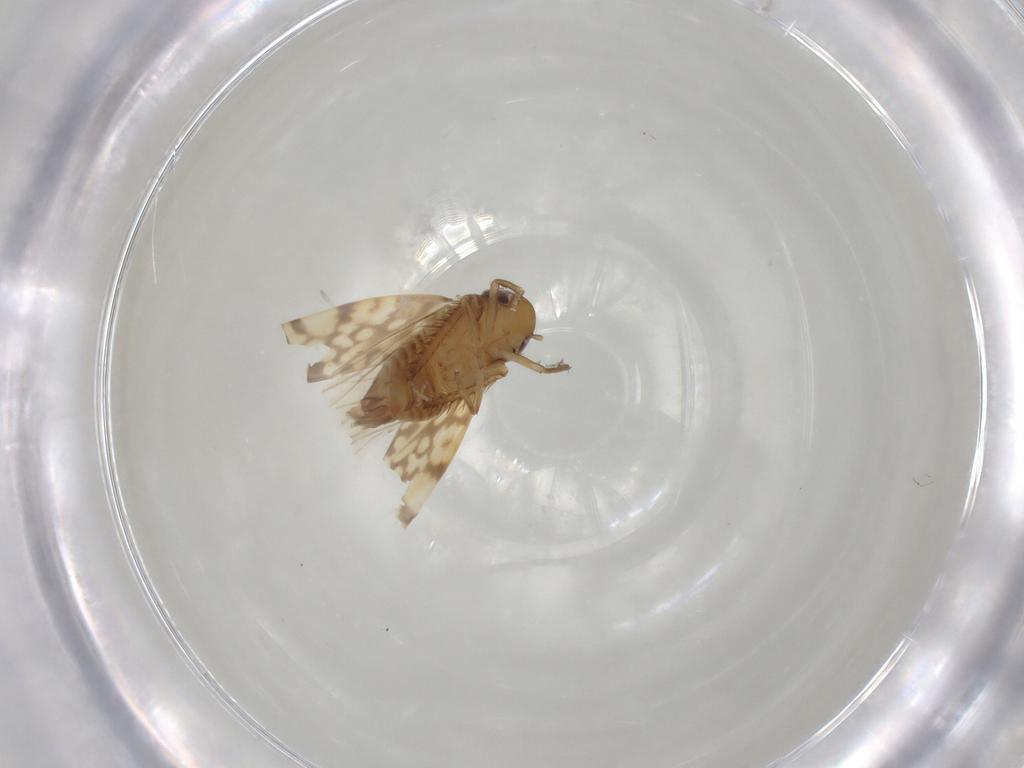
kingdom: Animalia
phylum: Arthropoda
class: Insecta
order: Hemiptera
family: Cicadellidae
